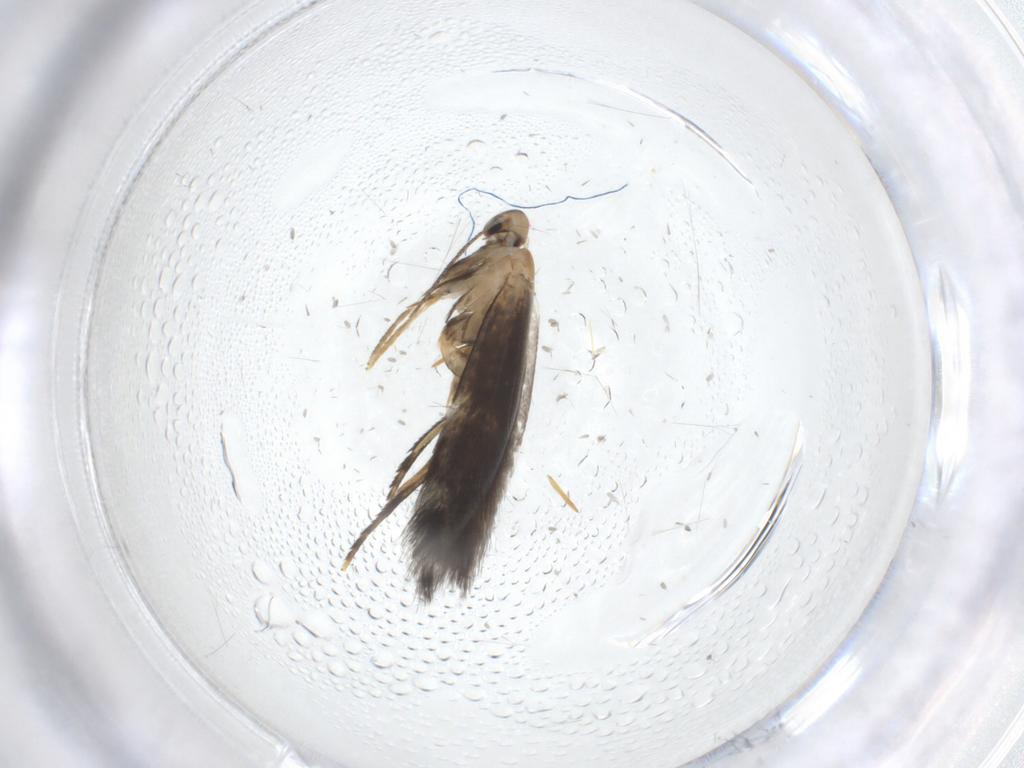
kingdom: Animalia
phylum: Arthropoda
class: Insecta
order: Lepidoptera
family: Heliozelidae
